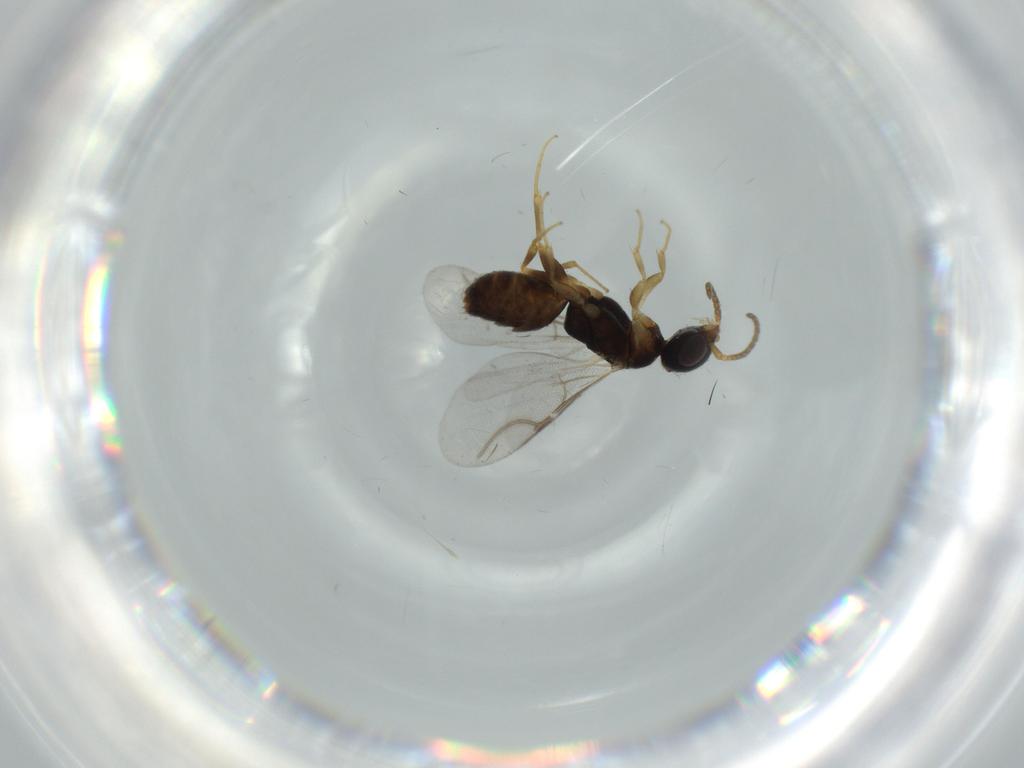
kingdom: Animalia
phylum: Arthropoda
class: Insecta
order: Hymenoptera
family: Bethylidae
